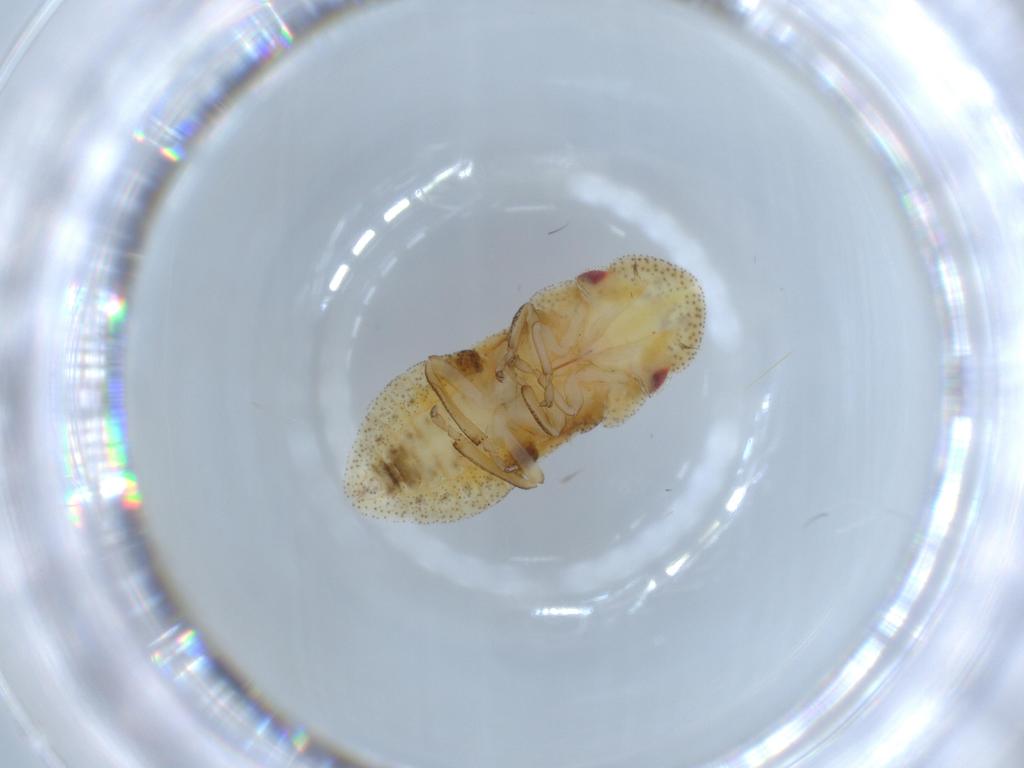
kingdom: Animalia
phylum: Arthropoda
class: Insecta
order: Hemiptera
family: Cicadellidae
